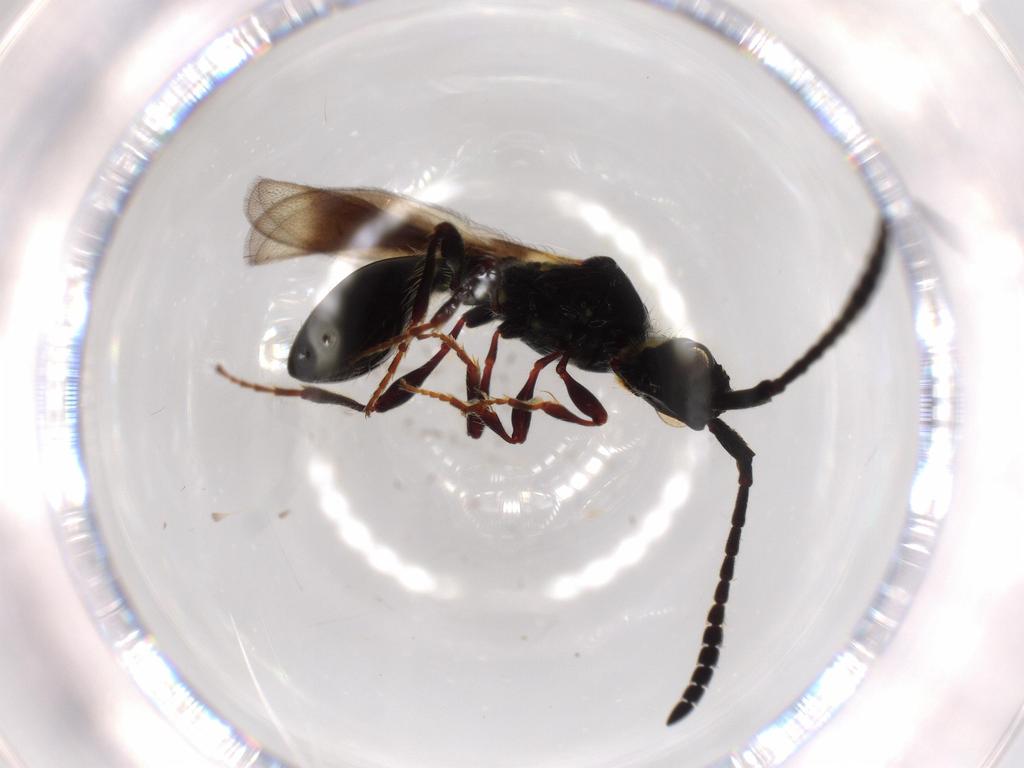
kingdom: Animalia
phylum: Arthropoda
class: Insecta
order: Hymenoptera
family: Diapriidae
